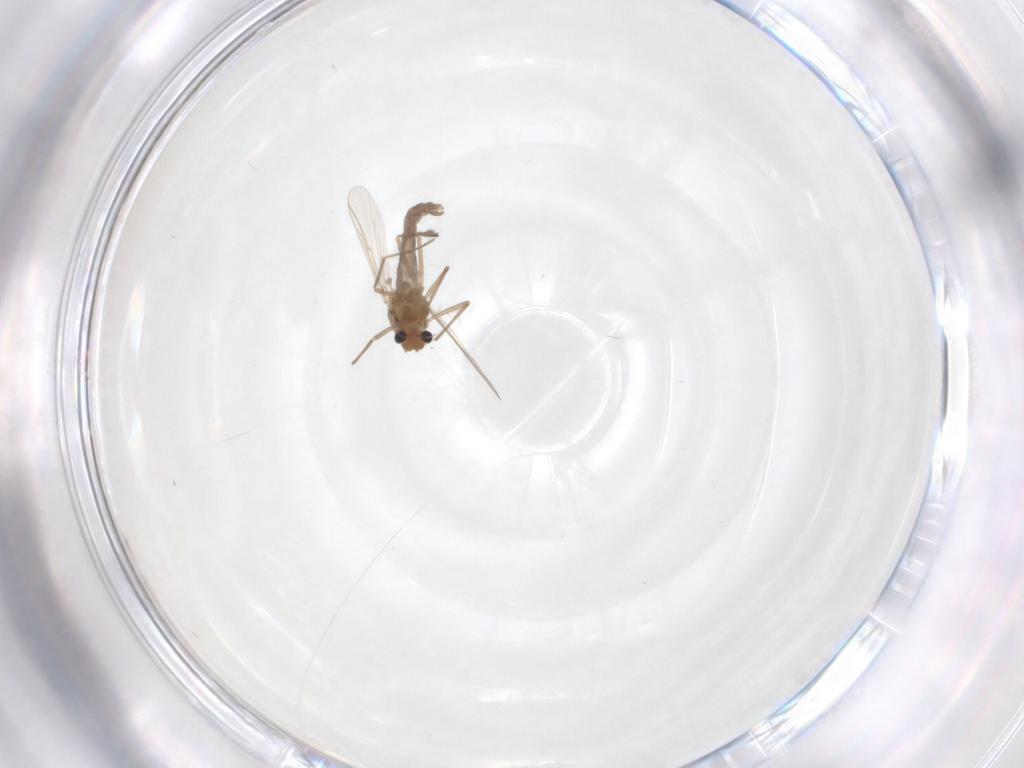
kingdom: Animalia
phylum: Arthropoda
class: Insecta
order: Diptera
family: Chironomidae
